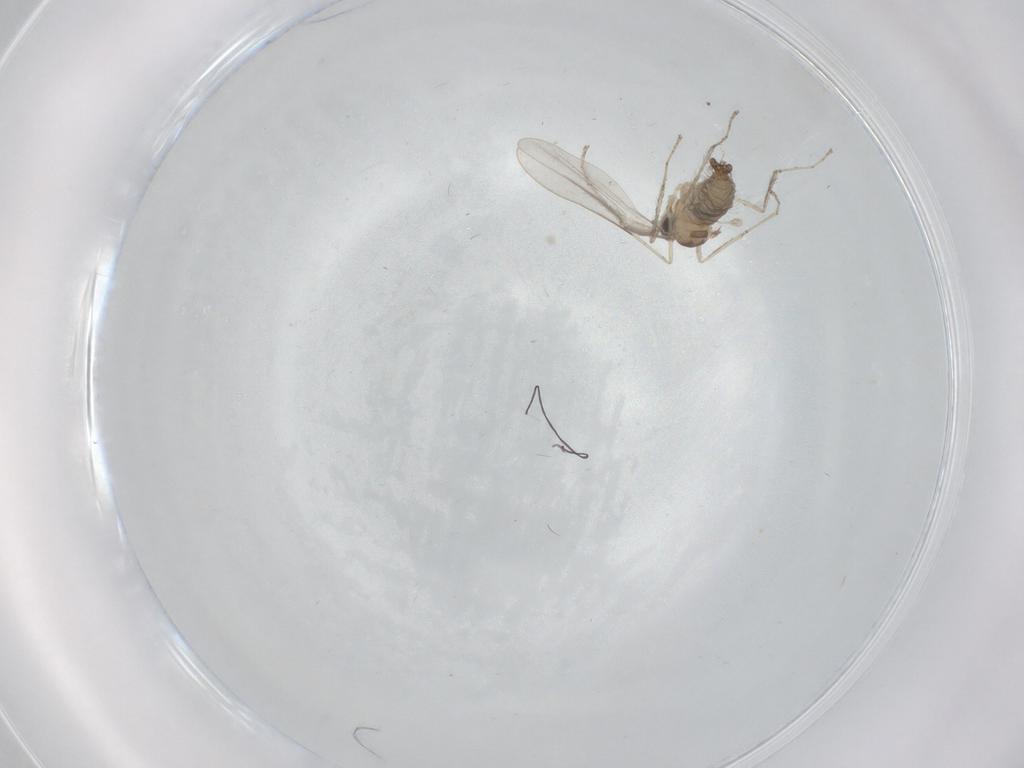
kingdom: Animalia
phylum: Arthropoda
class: Insecta
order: Diptera
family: Cecidomyiidae
